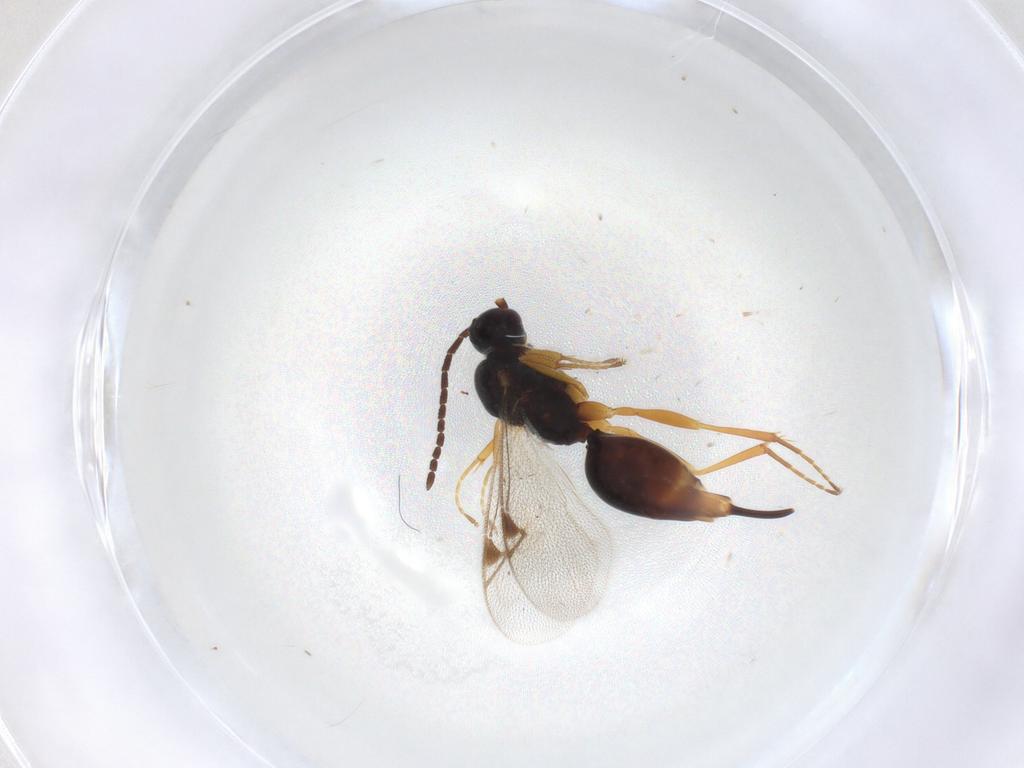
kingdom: Animalia
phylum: Arthropoda
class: Insecta
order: Hymenoptera
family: Proctotrupidae
